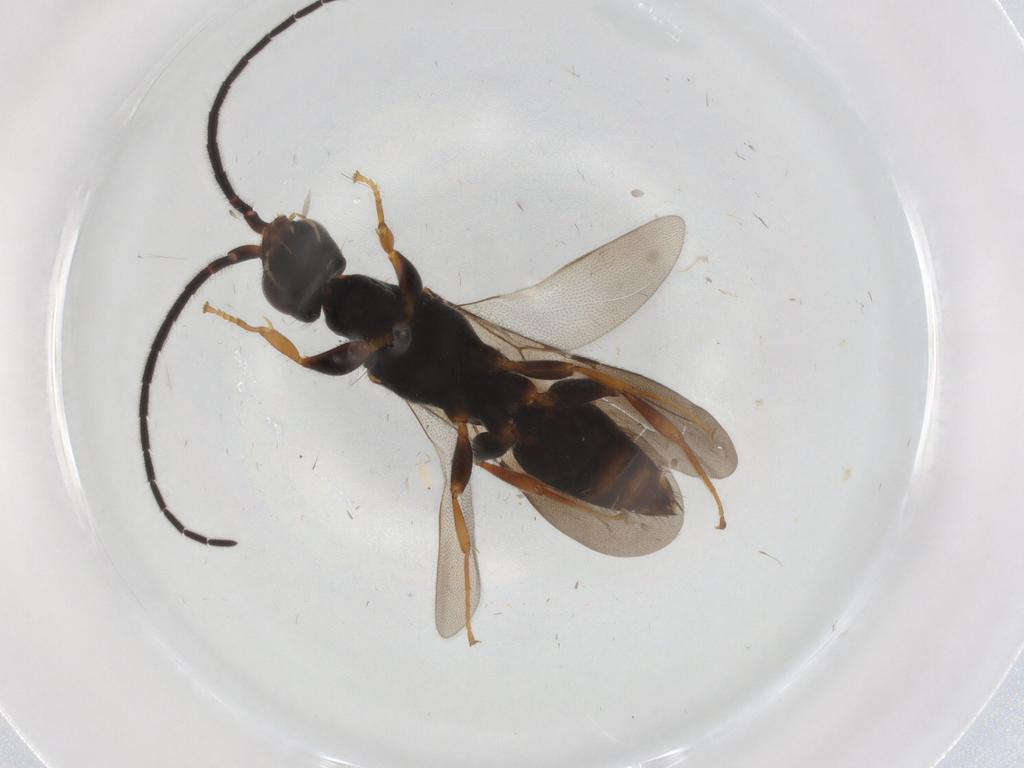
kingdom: Animalia
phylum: Arthropoda
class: Insecta
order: Hymenoptera
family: Bethylidae
